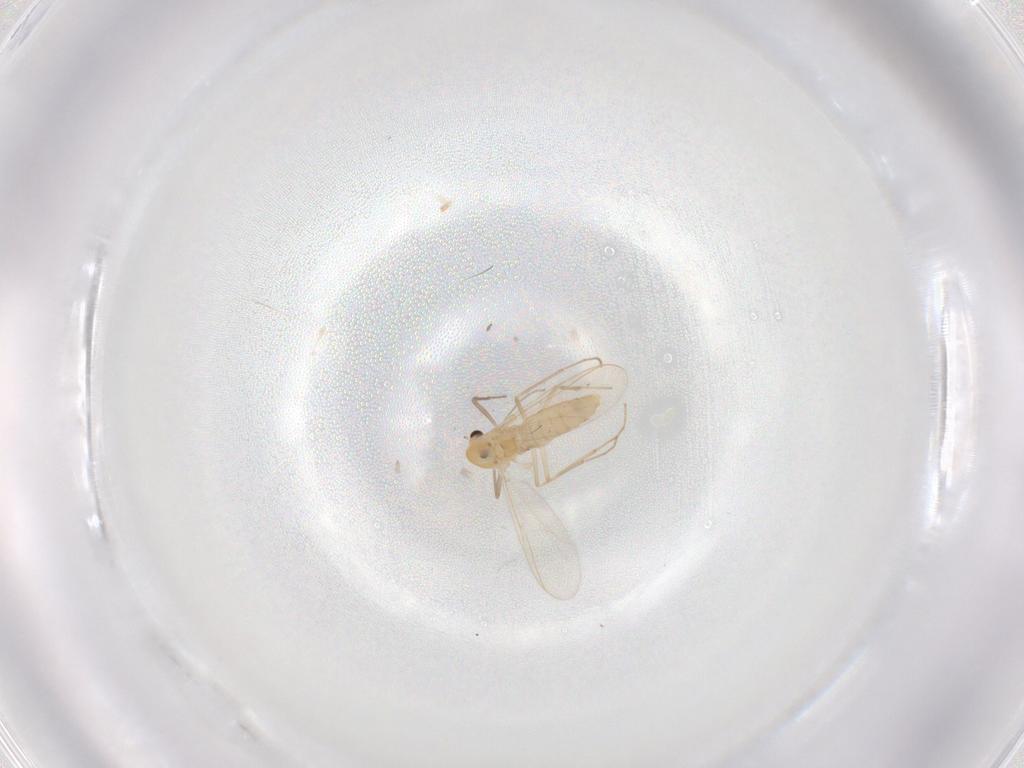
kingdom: Animalia
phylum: Arthropoda
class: Insecta
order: Diptera
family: Chironomidae
